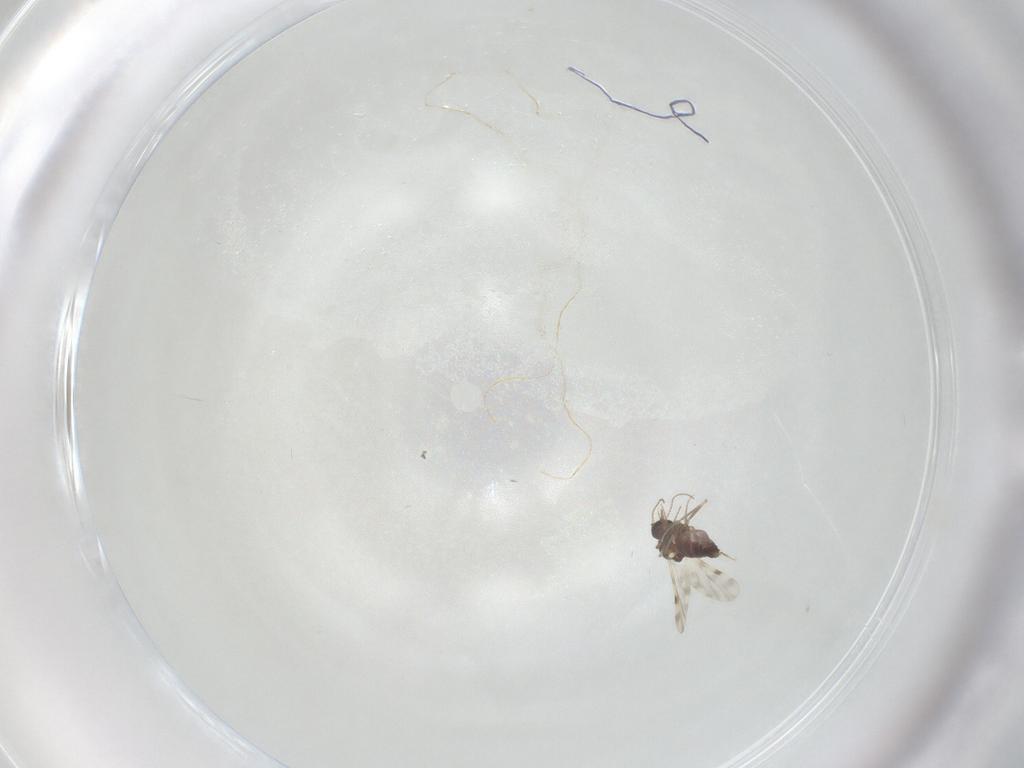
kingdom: Animalia
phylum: Arthropoda
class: Insecta
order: Diptera
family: Ceratopogonidae
